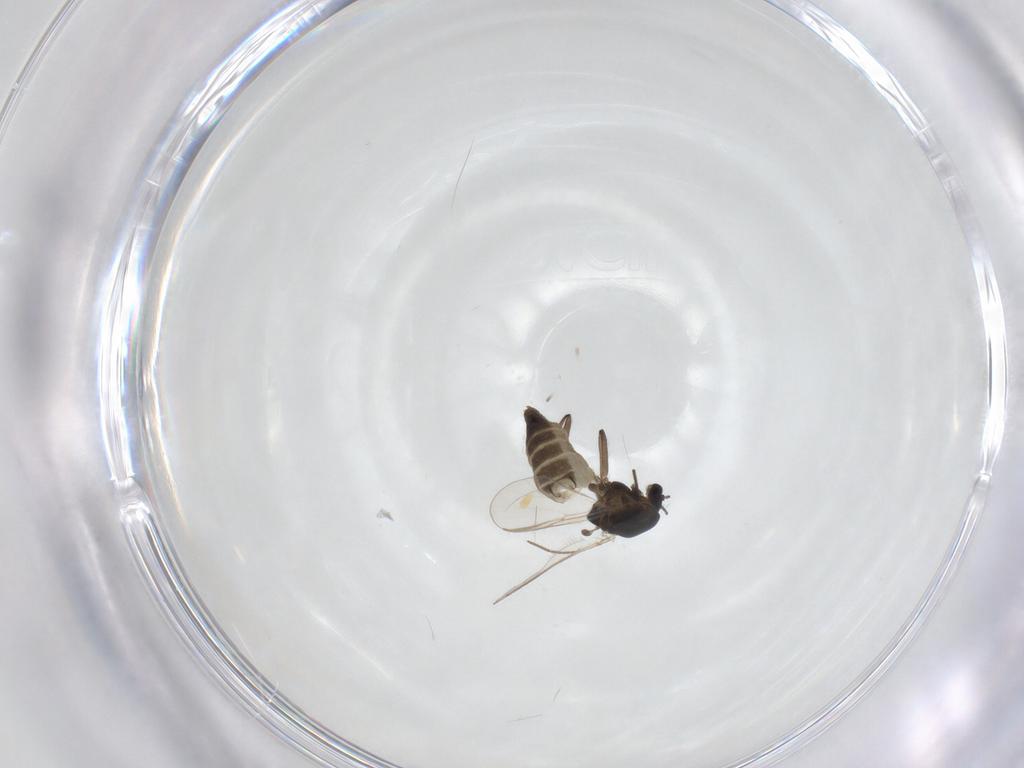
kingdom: Animalia
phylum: Arthropoda
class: Insecta
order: Diptera
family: Chironomidae
